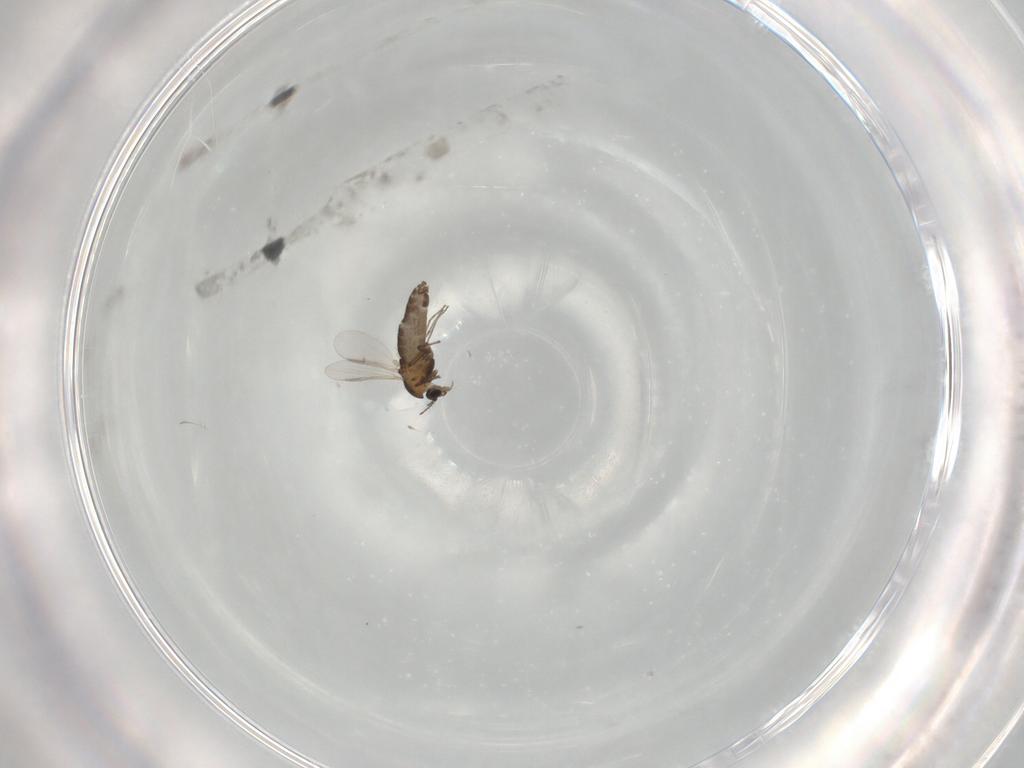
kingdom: Animalia
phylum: Arthropoda
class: Insecta
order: Diptera
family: Chironomidae
